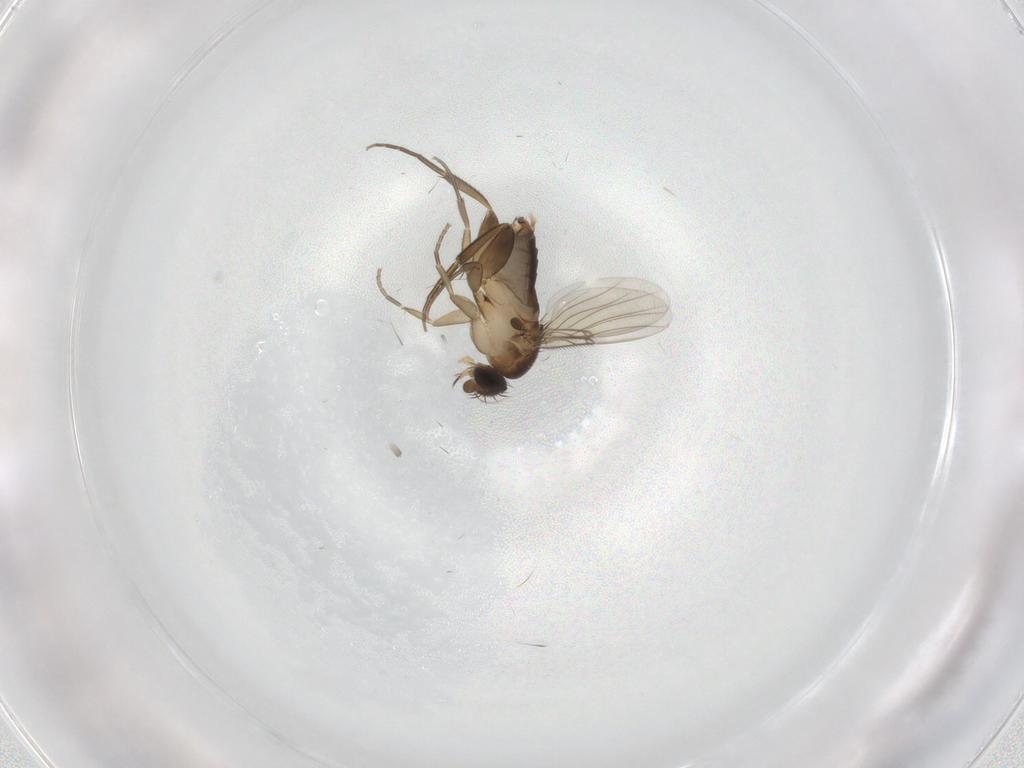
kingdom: Animalia
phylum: Arthropoda
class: Insecta
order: Diptera
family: Phoridae
